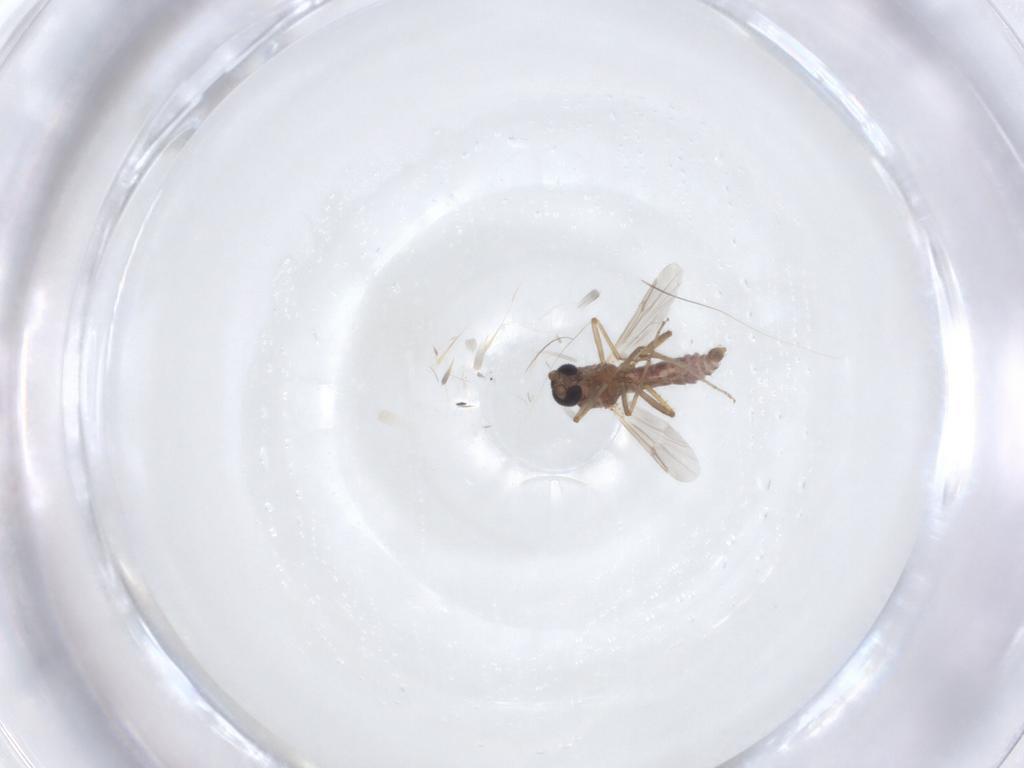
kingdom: Animalia
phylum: Arthropoda
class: Insecta
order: Diptera
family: Ceratopogonidae
